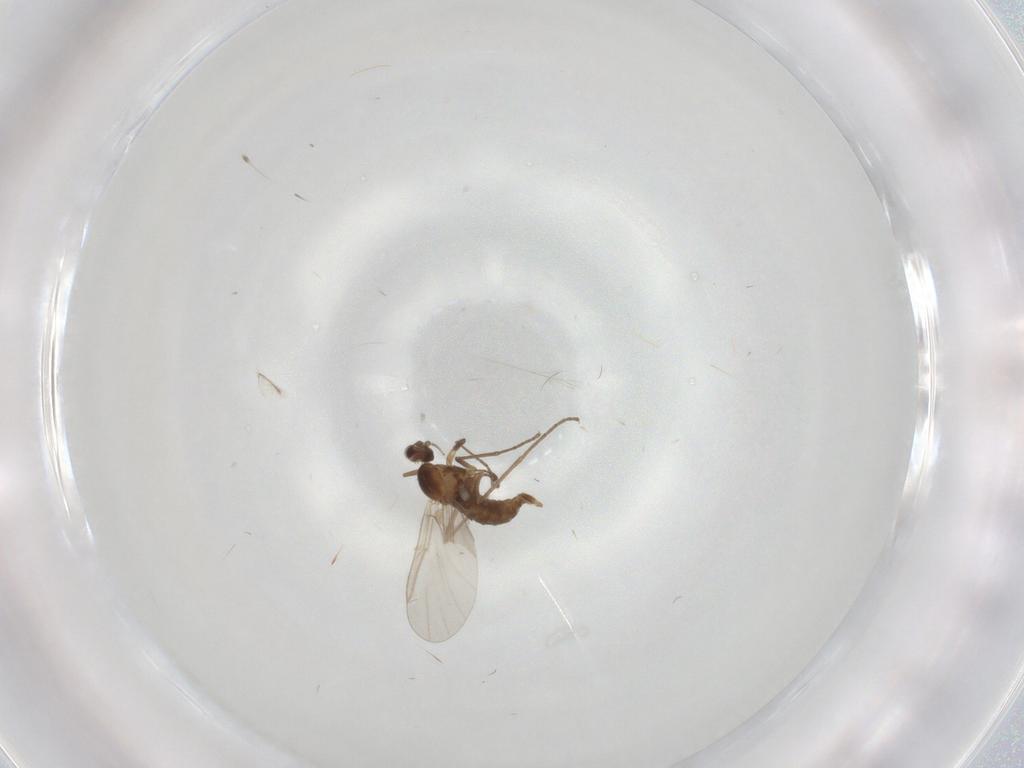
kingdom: Animalia
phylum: Arthropoda
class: Insecta
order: Diptera
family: Cecidomyiidae
